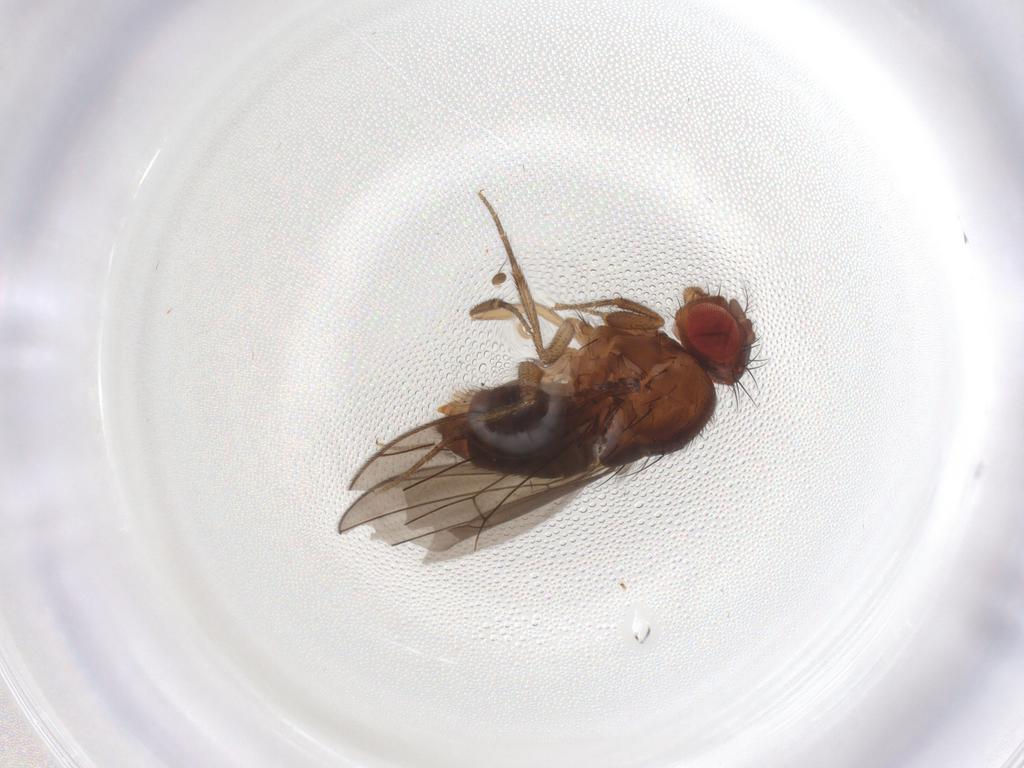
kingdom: Animalia
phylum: Arthropoda
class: Insecta
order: Diptera
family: Drosophilidae
